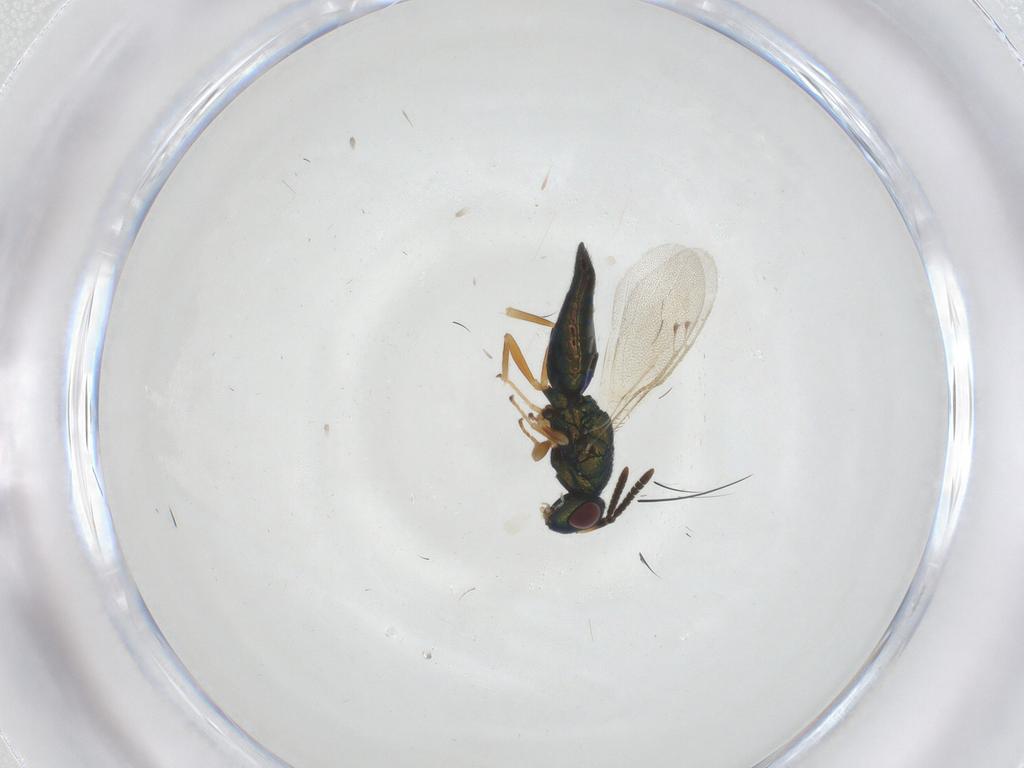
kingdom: Animalia
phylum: Arthropoda
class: Insecta
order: Hymenoptera
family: Pteromalidae
